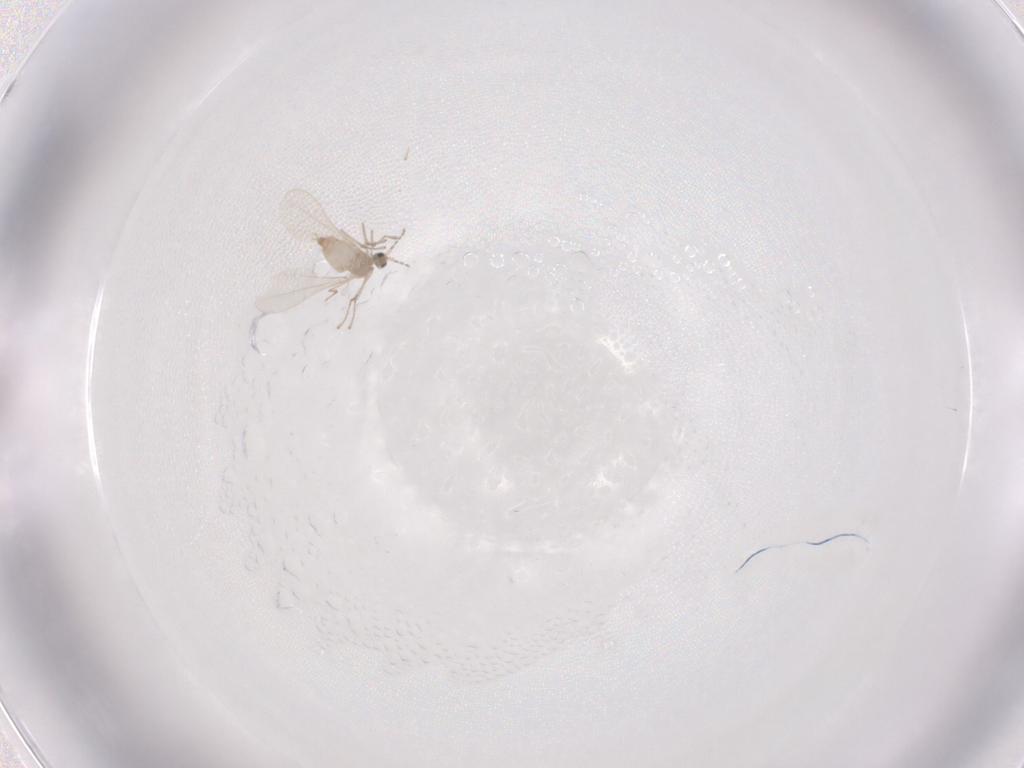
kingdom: Animalia
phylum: Arthropoda
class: Insecta
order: Diptera
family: Cecidomyiidae
